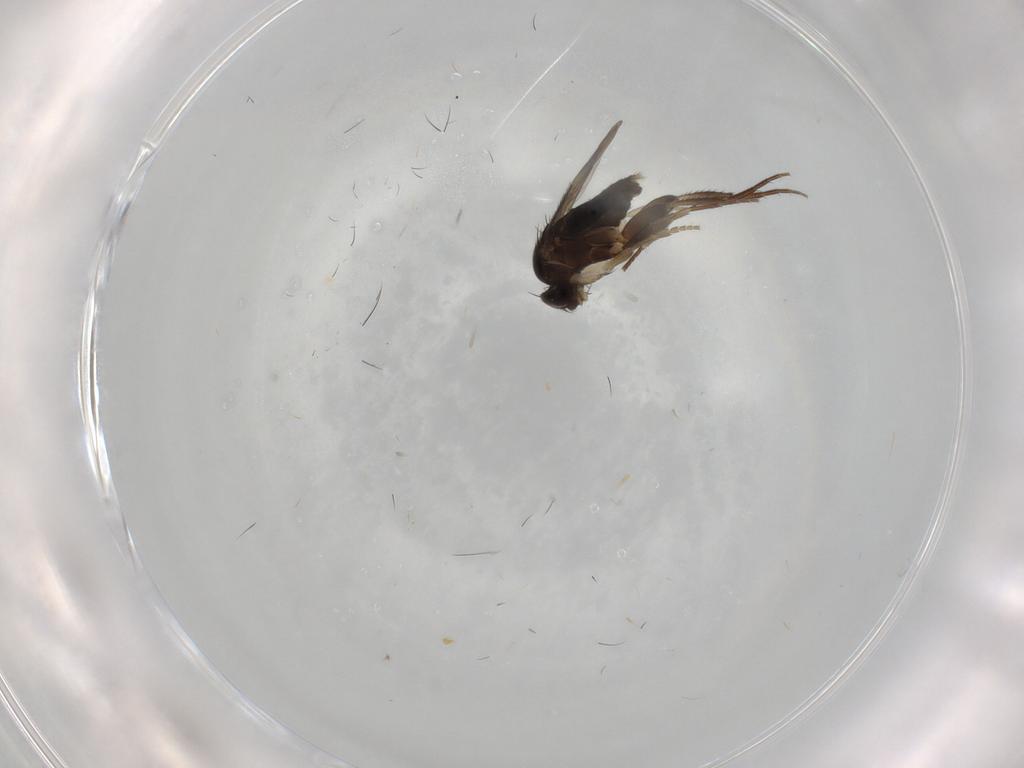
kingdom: Animalia
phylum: Arthropoda
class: Insecta
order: Diptera
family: Phoridae
